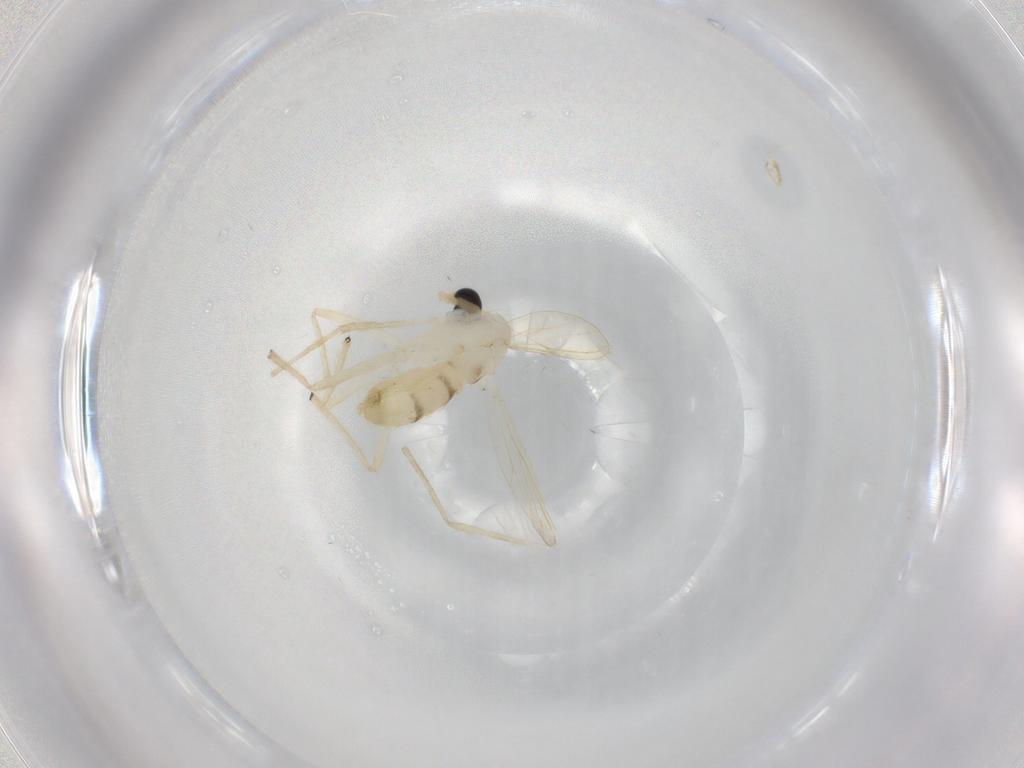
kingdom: Animalia
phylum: Arthropoda
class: Insecta
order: Diptera
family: Chironomidae
